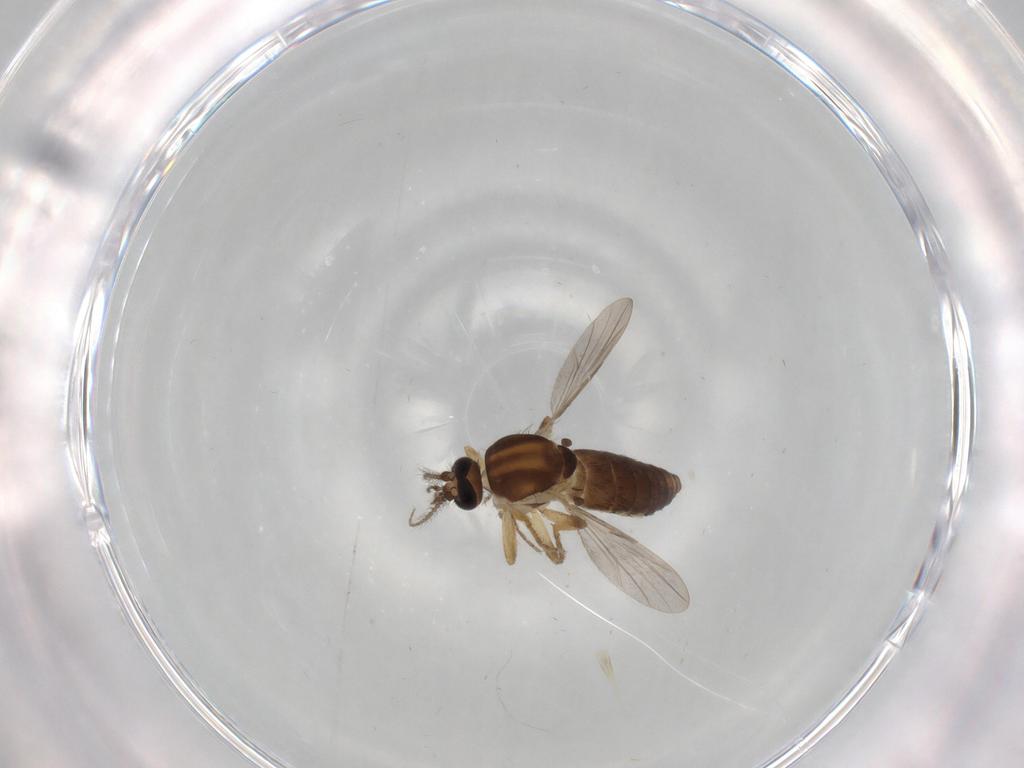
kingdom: Animalia
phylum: Arthropoda
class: Insecta
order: Diptera
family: Ceratopogonidae
